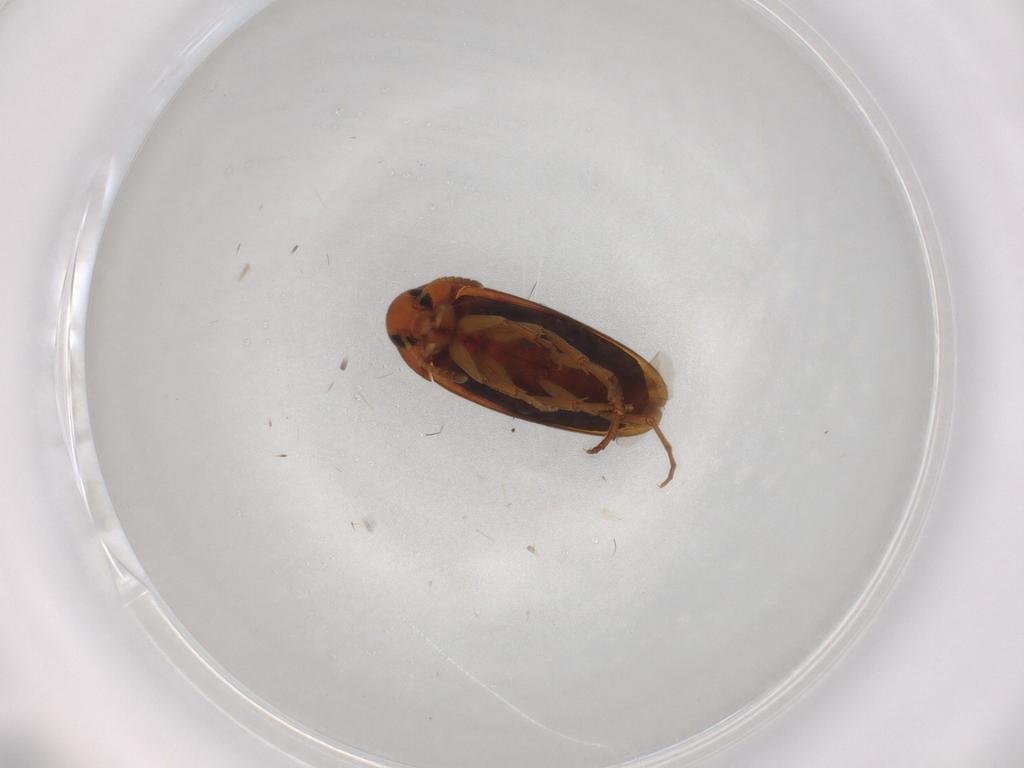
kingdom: Animalia
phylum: Arthropoda
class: Insecta
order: Coleoptera
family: Scraptiidae
